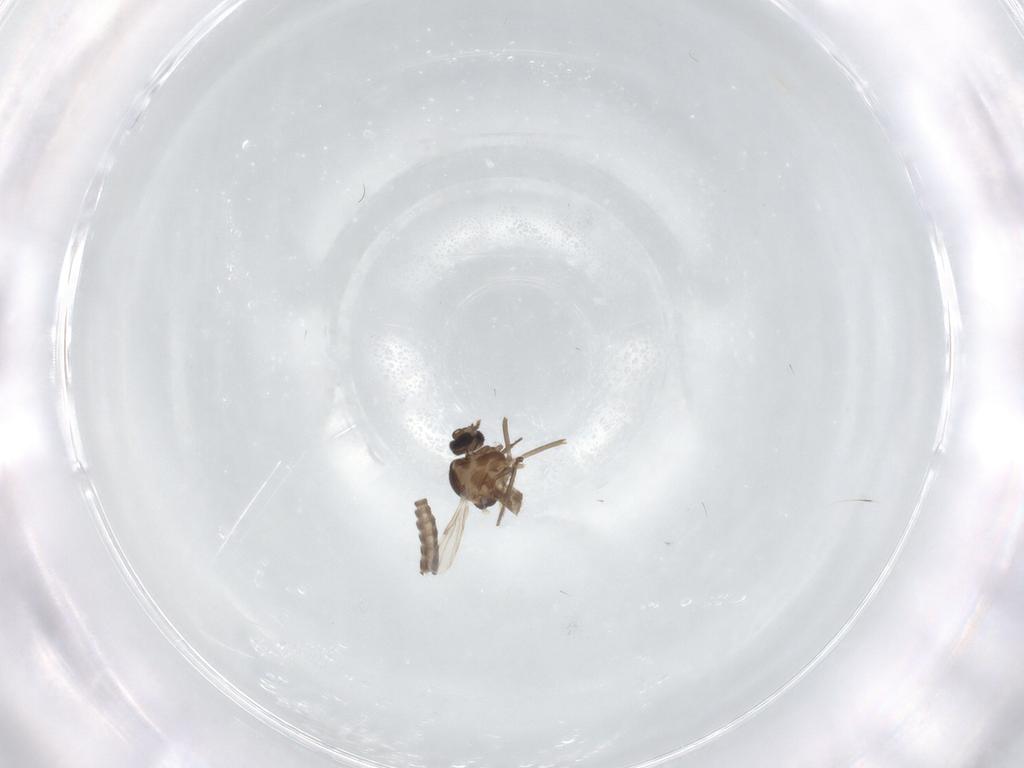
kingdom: Animalia
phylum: Arthropoda
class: Insecta
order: Diptera
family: Ceratopogonidae
